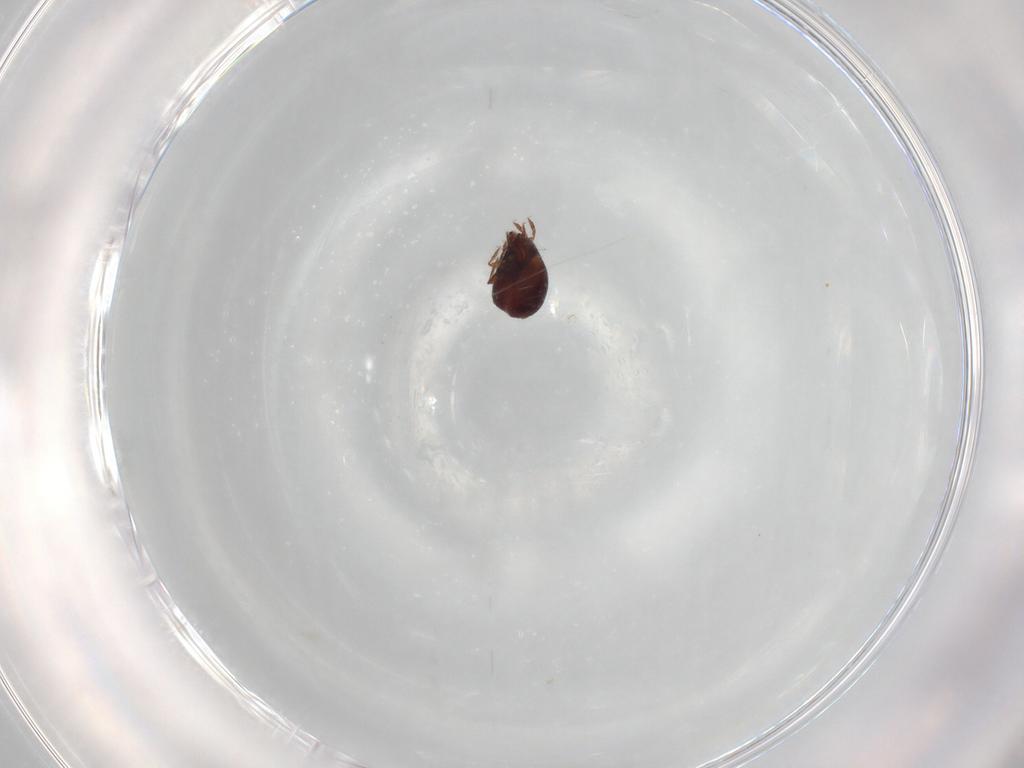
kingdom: Animalia
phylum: Arthropoda
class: Arachnida
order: Sarcoptiformes
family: Humerobatidae
